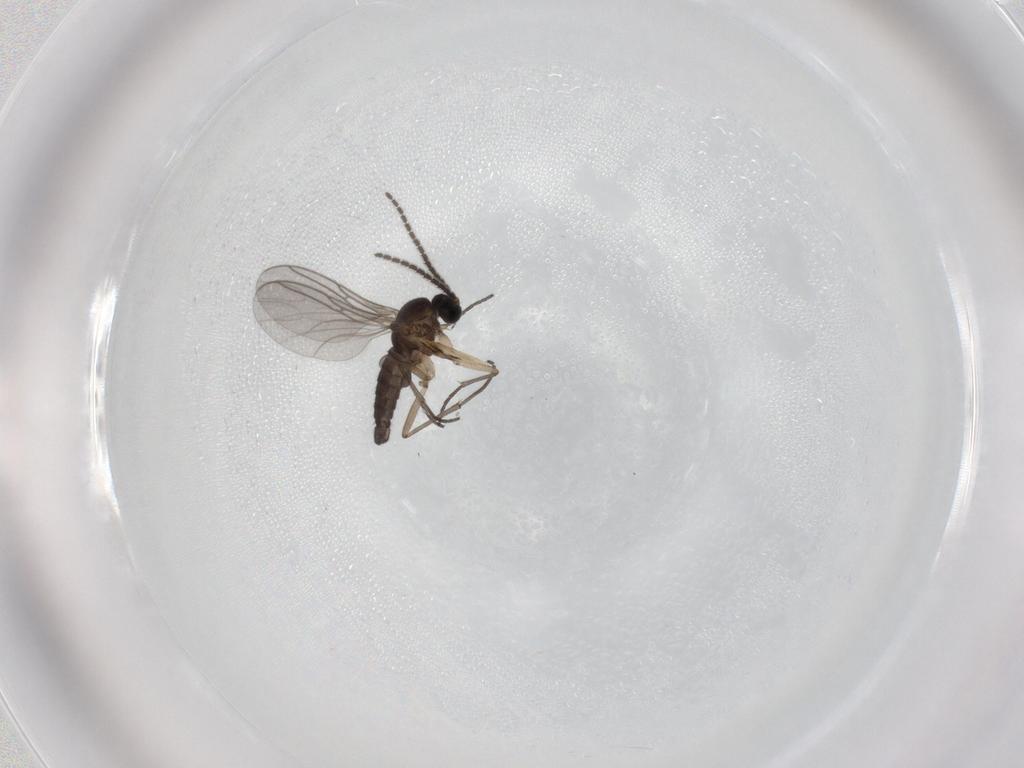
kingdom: Animalia
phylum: Arthropoda
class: Insecta
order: Diptera
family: Sciaridae
